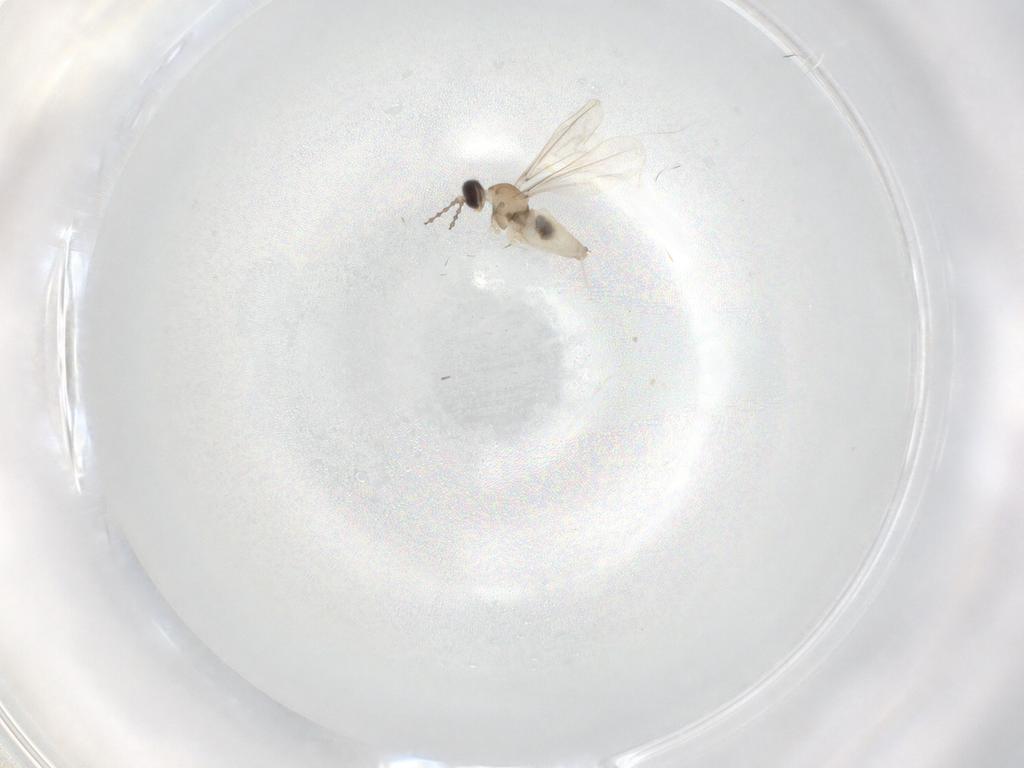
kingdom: Animalia
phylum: Arthropoda
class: Insecta
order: Diptera
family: Cecidomyiidae
